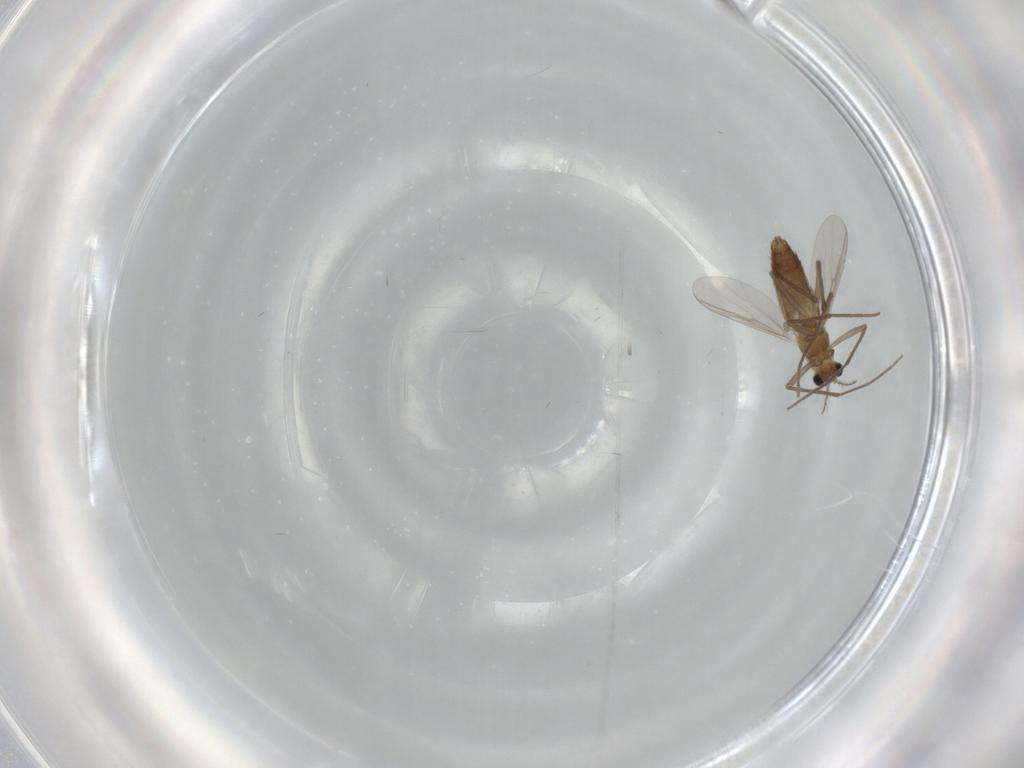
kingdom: Animalia
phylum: Arthropoda
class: Insecta
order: Diptera
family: Chironomidae
